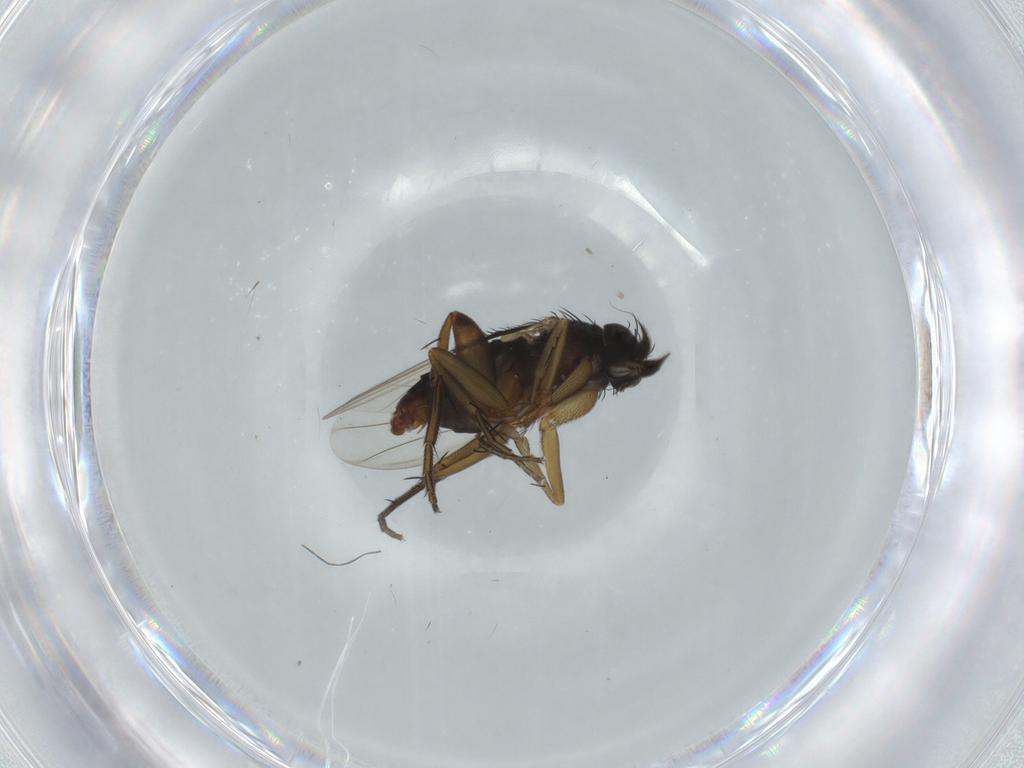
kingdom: Animalia
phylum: Arthropoda
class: Insecta
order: Diptera
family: Phoridae
